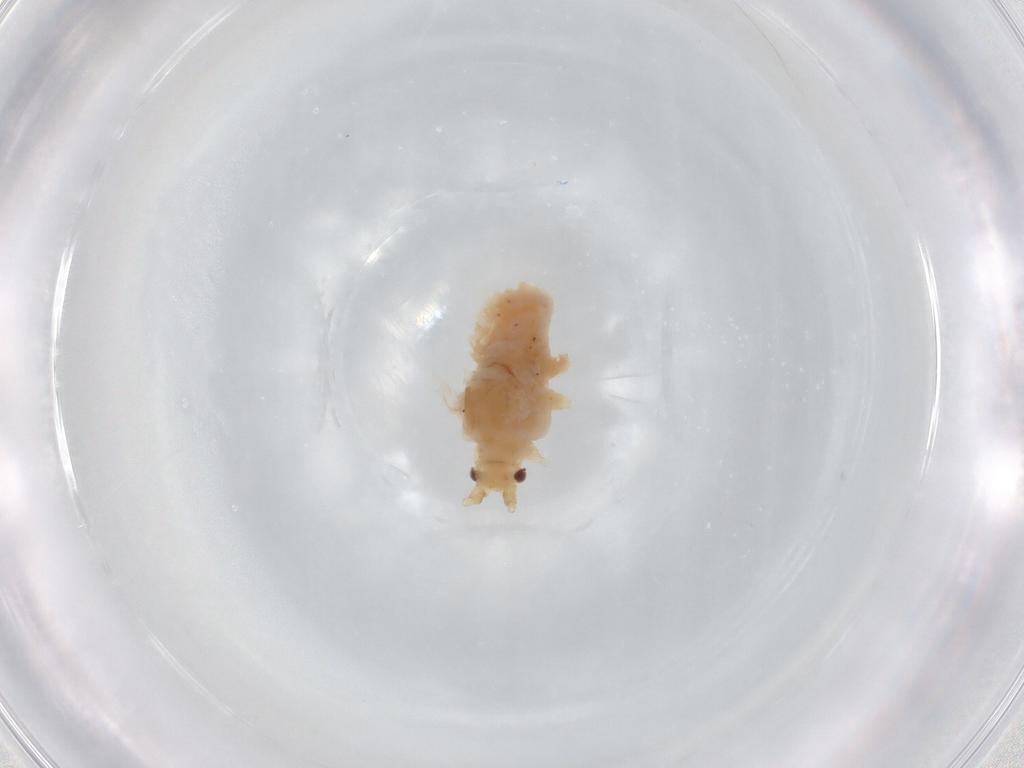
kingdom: Animalia
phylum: Arthropoda
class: Insecta
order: Hemiptera
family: Aphididae
